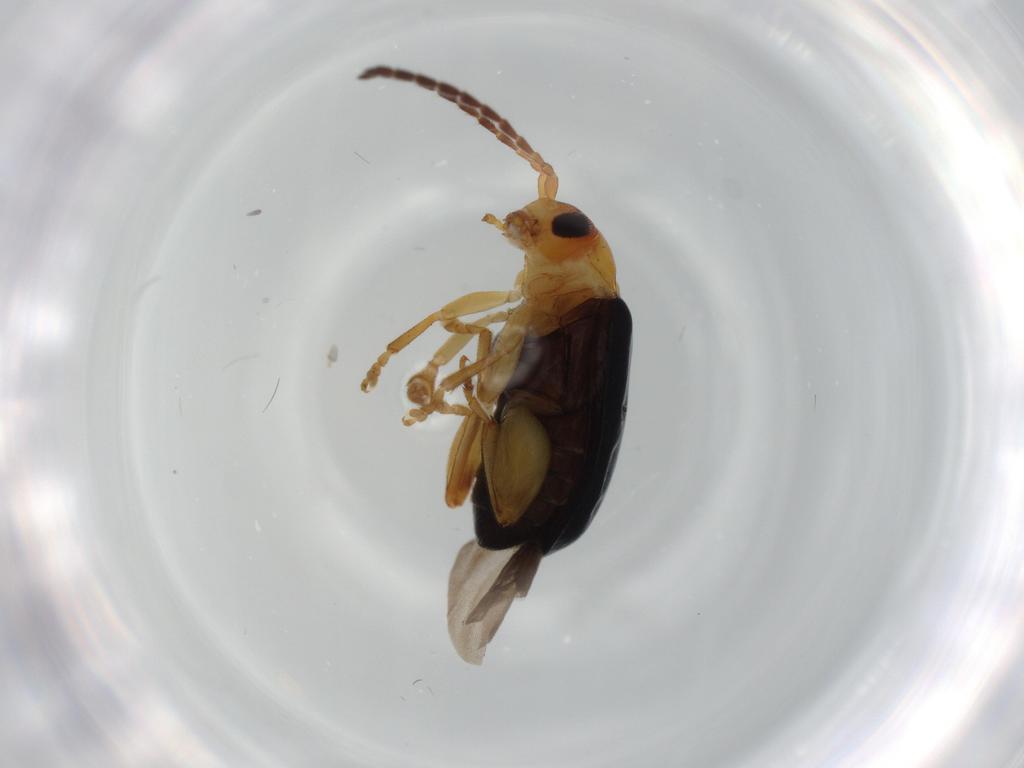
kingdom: Animalia
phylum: Arthropoda
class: Insecta
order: Coleoptera
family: Chrysomelidae
